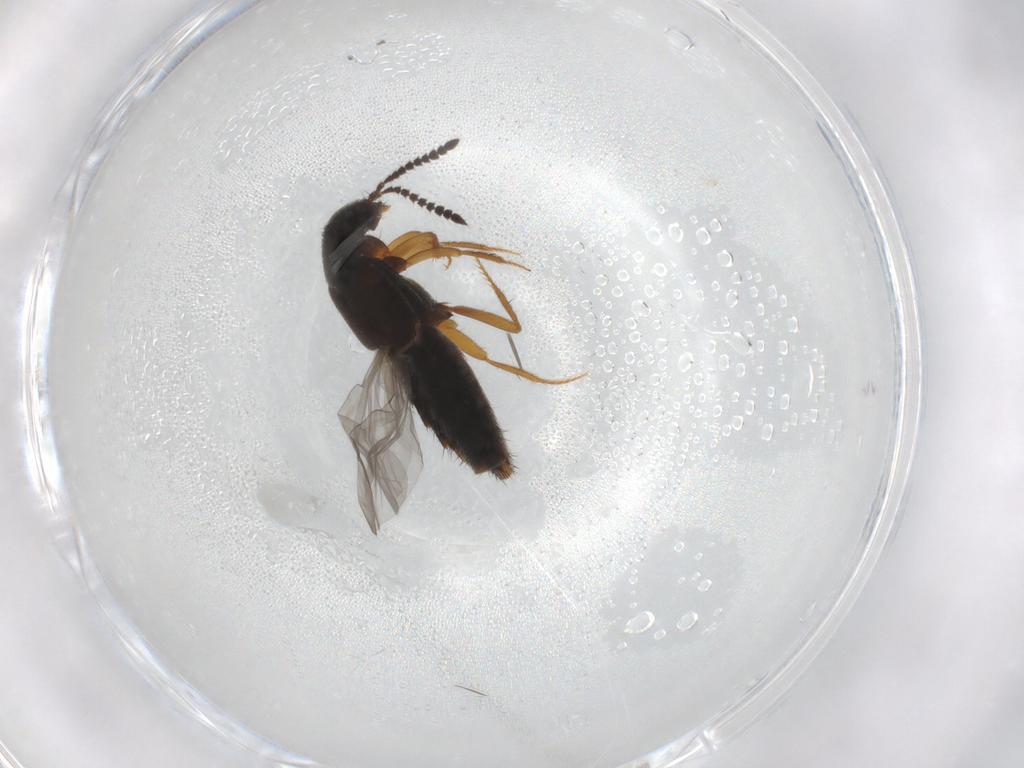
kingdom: Animalia
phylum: Arthropoda
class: Insecta
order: Coleoptera
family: Staphylinidae
